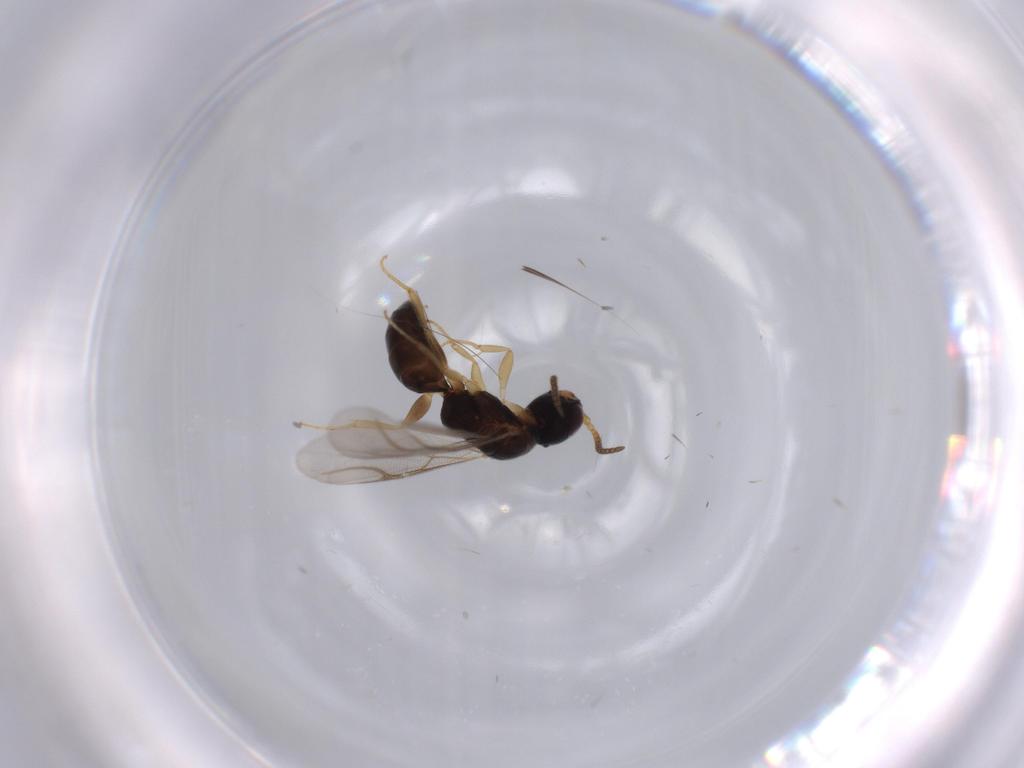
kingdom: Animalia
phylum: Arthropoda
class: Insecta
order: Hymenoptera
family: Bethylidae
